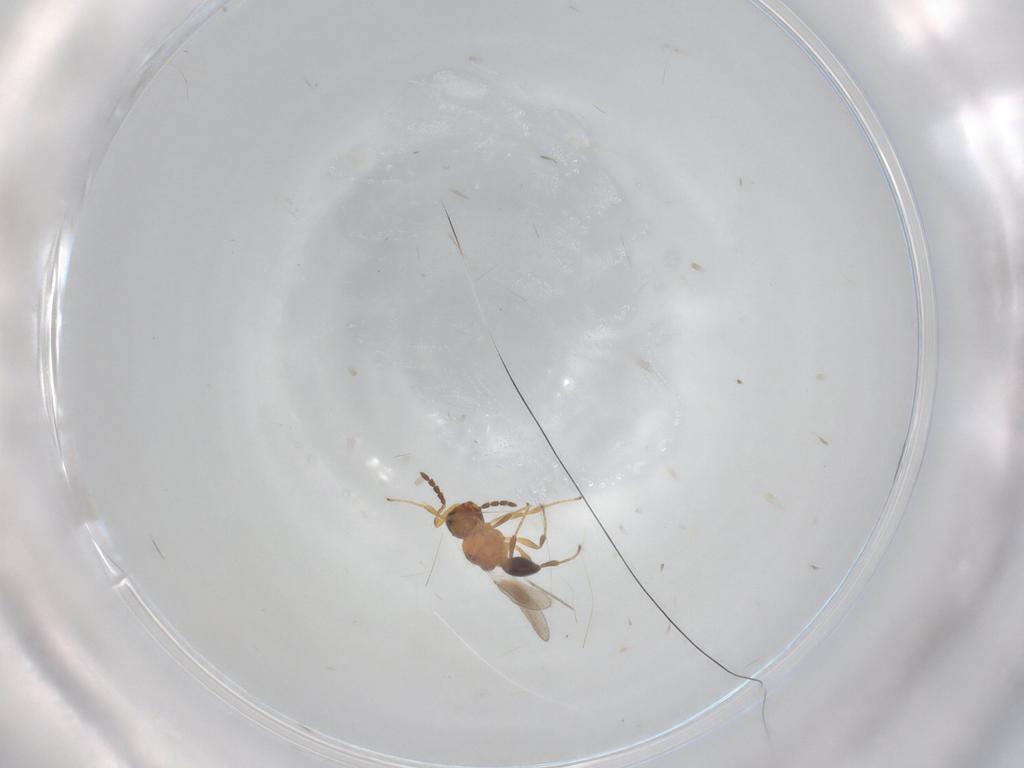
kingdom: Animalia
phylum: Arthropoda
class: Insecta
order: Hymenoptera
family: Platygastridae
